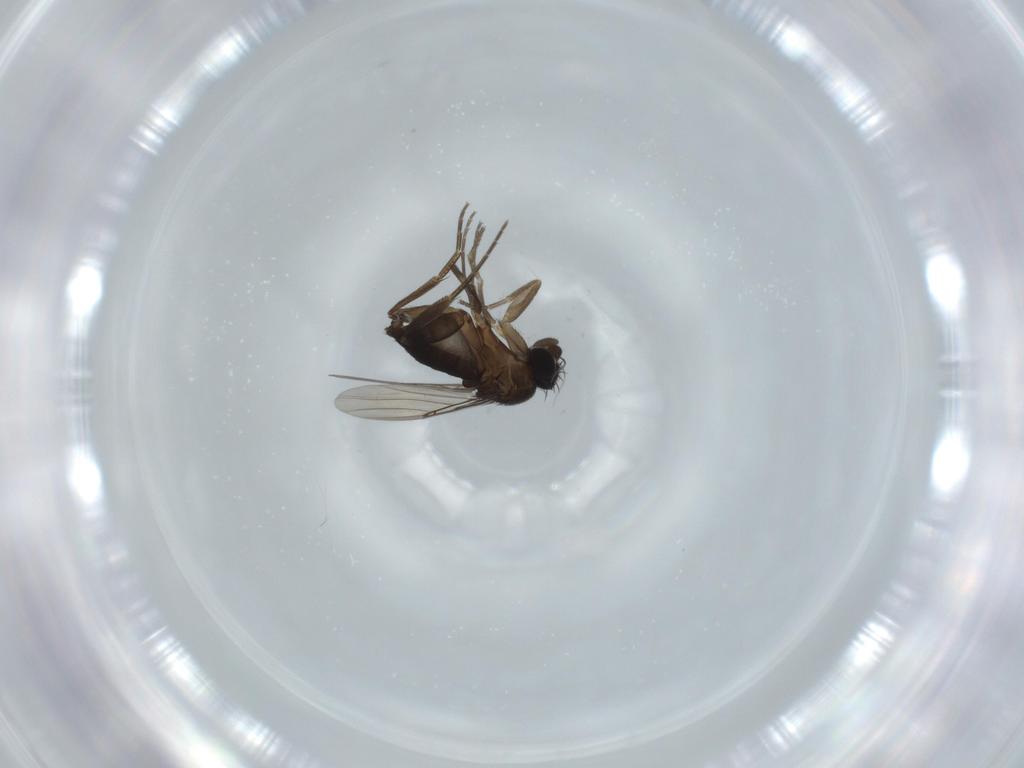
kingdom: Animalia
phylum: Arthropoda
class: Insecta
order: Diptera
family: Phoridae
